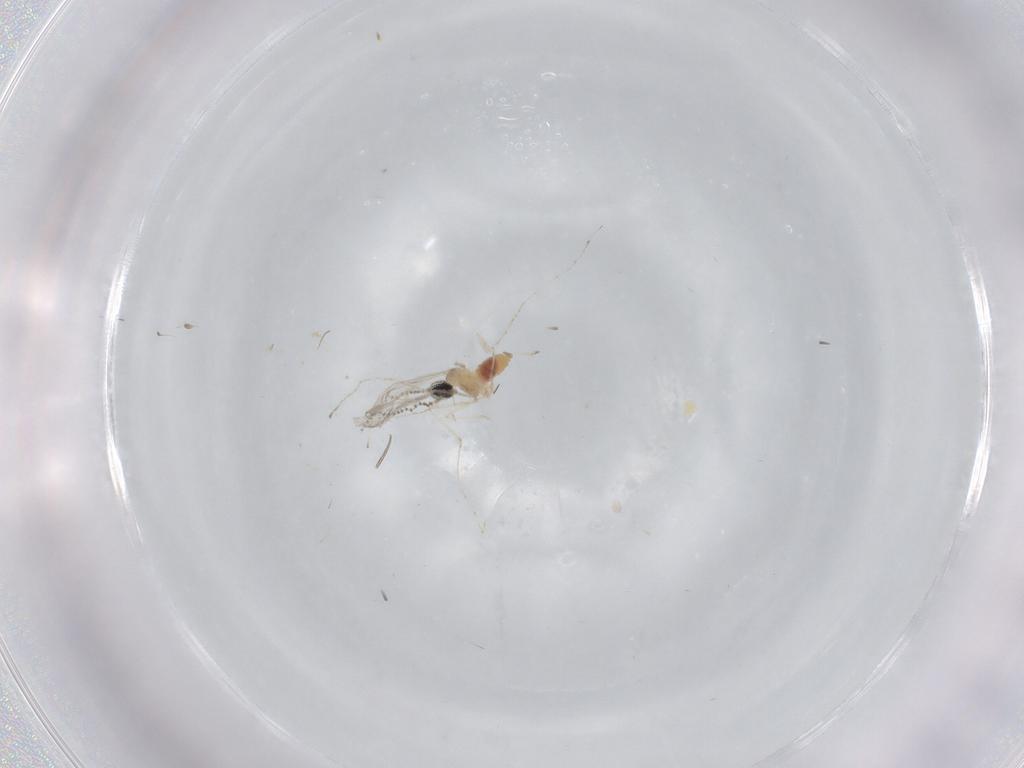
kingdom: Animalia
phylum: Arthropoda
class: Insecta
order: Diptera
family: Cecidomyiidae
